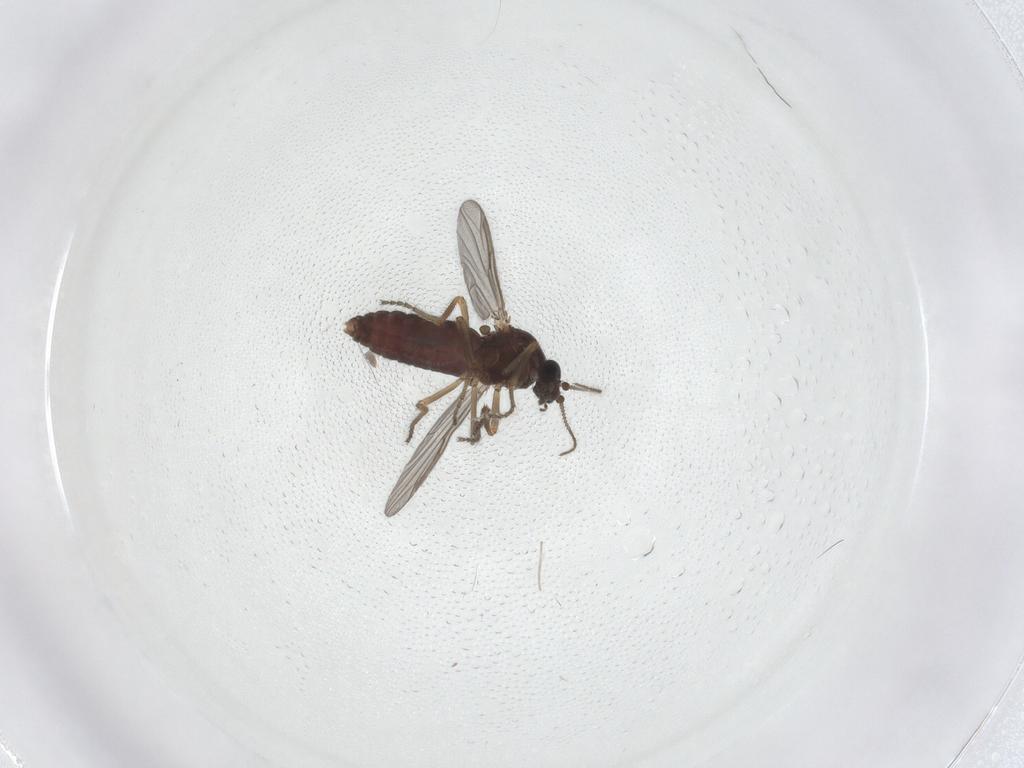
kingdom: Animalia
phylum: Arthropoda
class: Insecta
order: Diptera
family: Ceratopogonidae
